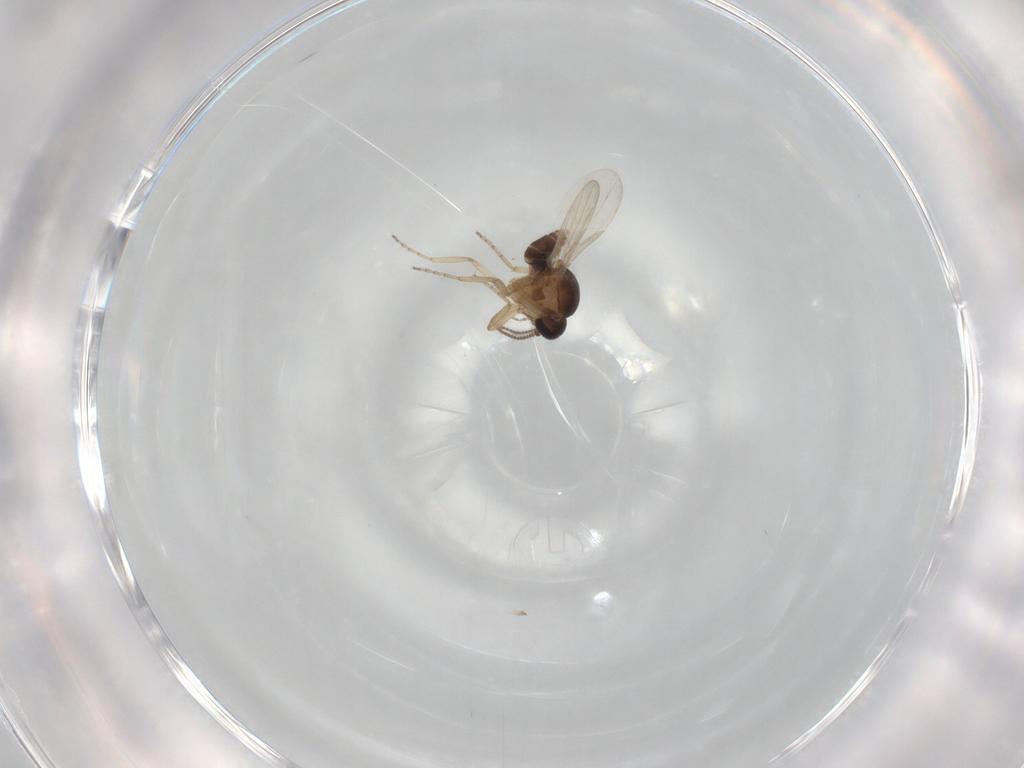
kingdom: Animalia
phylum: Arthropoda
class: Insecta
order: Diptera
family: Ceratopogonidae
